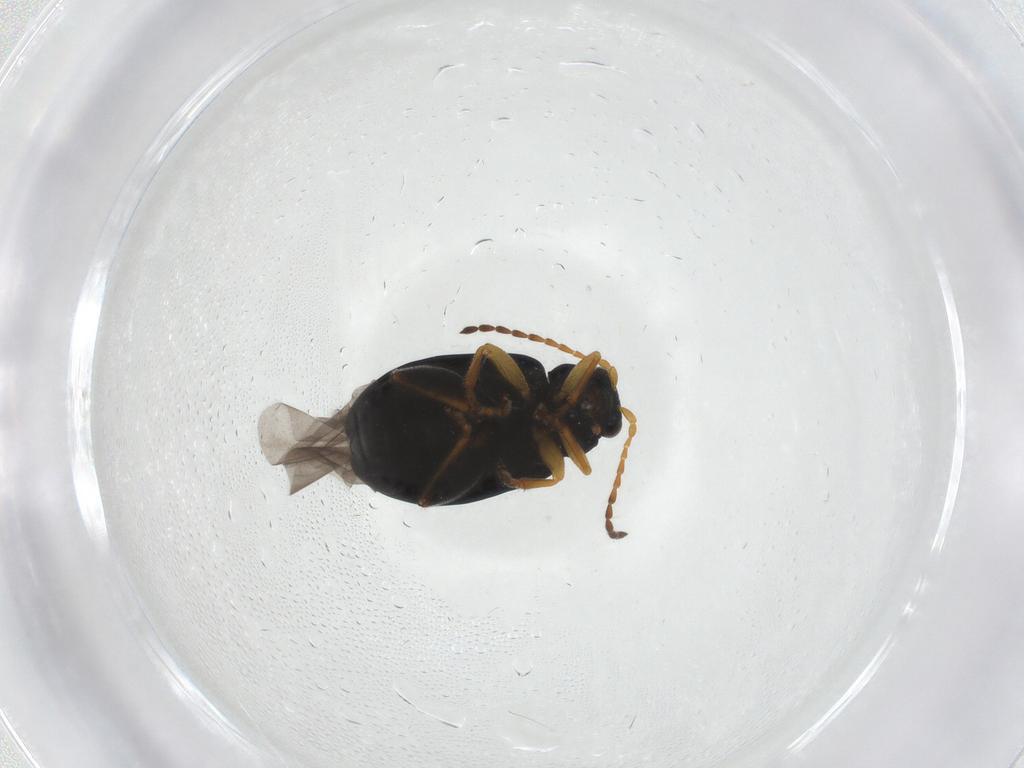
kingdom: Animalia
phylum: Arthropoda
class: Insecta
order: Coleoptera
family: Chrysomelidae
